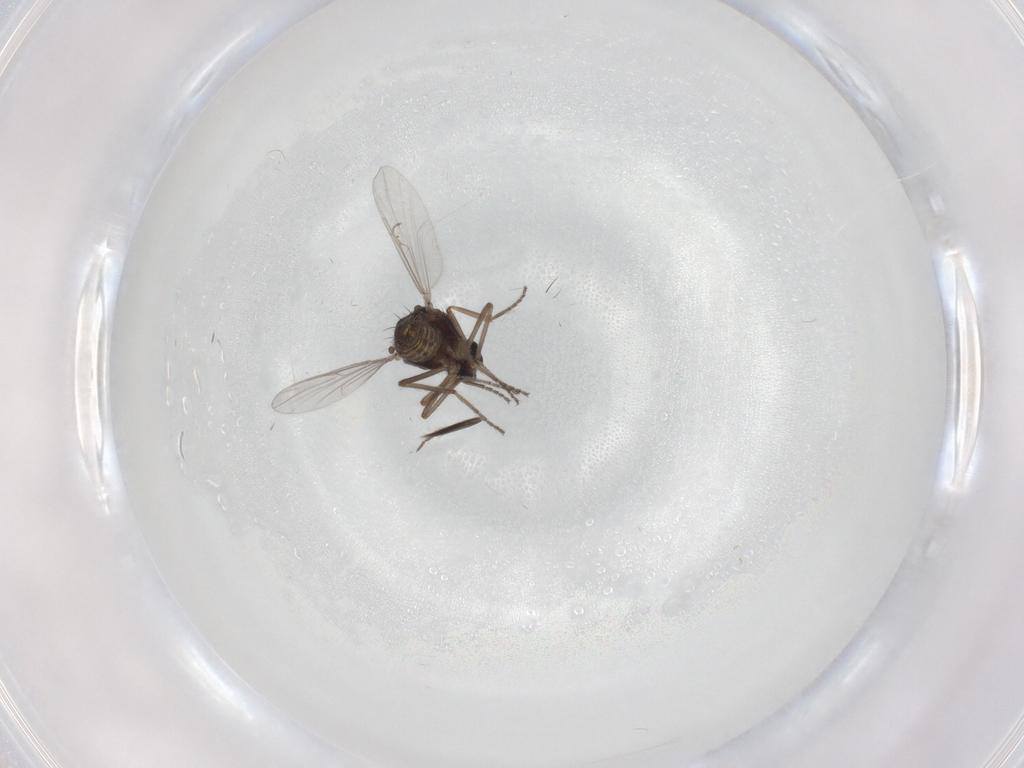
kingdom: Animalia
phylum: Arthropoda
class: Insecta
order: Diptera
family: Ceratopogonidae
